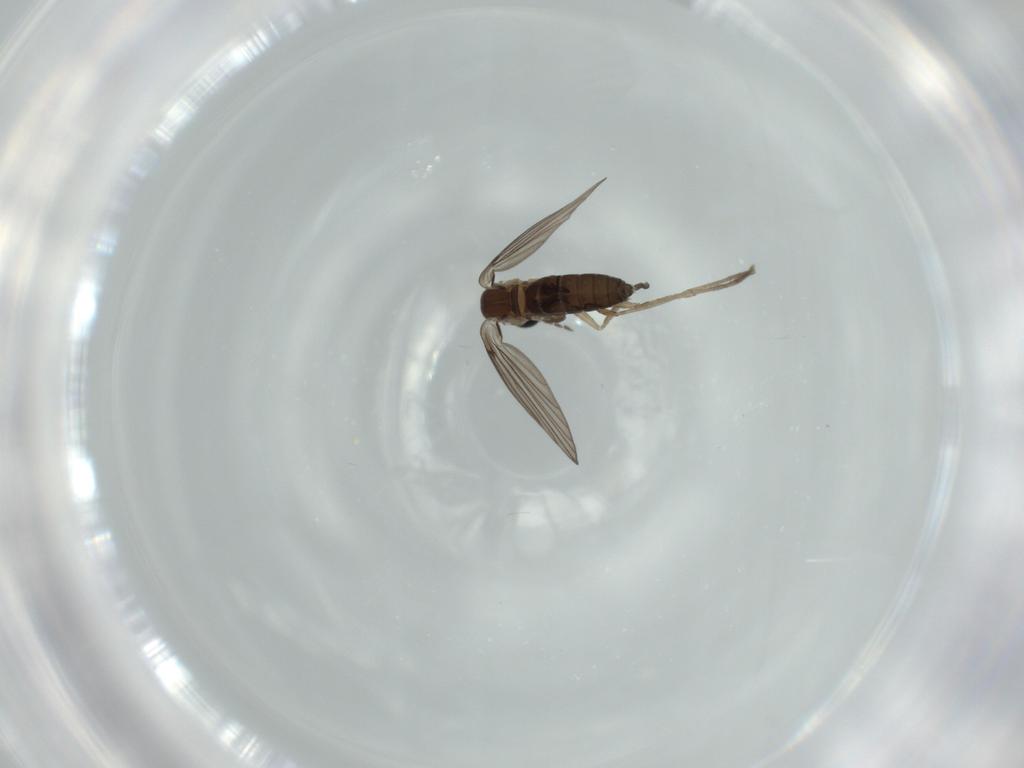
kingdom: Animalia
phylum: Arthropoda
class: Insecta
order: Diptera
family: Psychodidae
